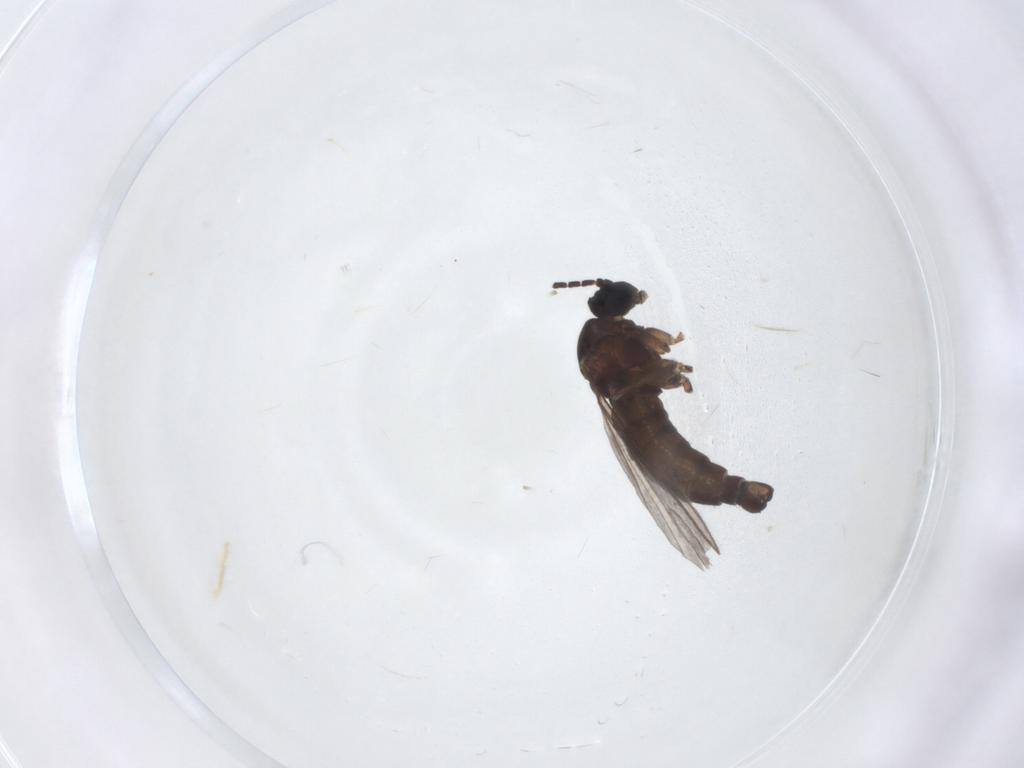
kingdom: Animalia
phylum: Arthropoda
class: Insecta
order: Diptera
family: Sciaridae
